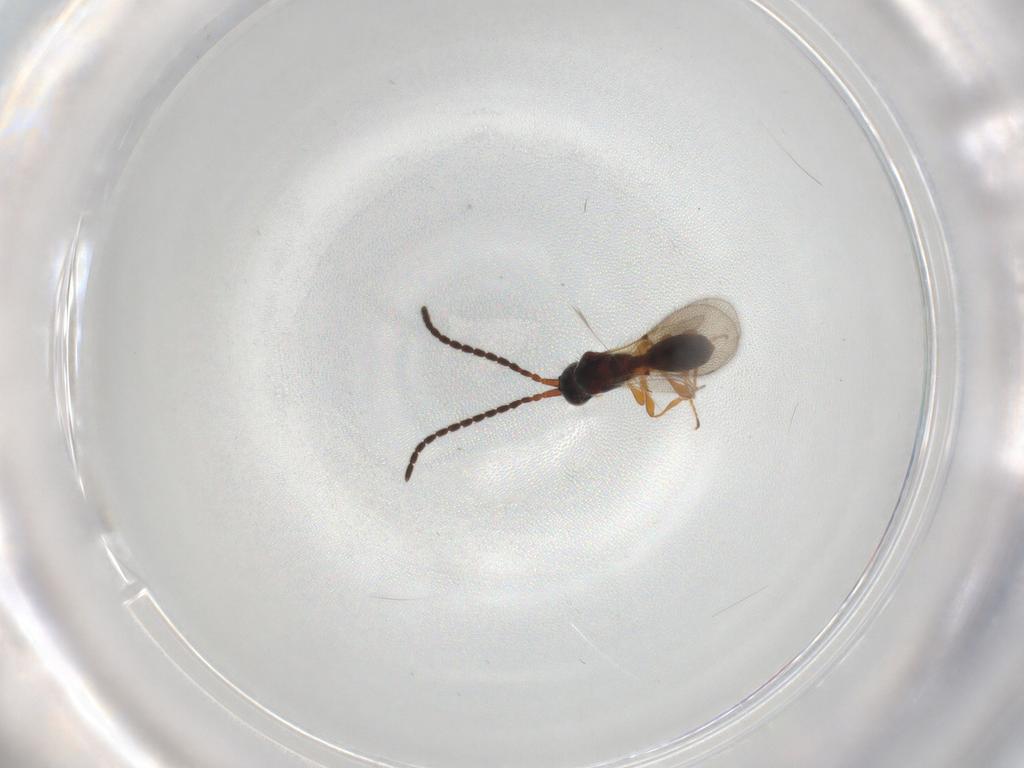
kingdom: Animalia
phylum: Arthropoda
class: Insecta
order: Hymenoptera
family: Diapriidae
